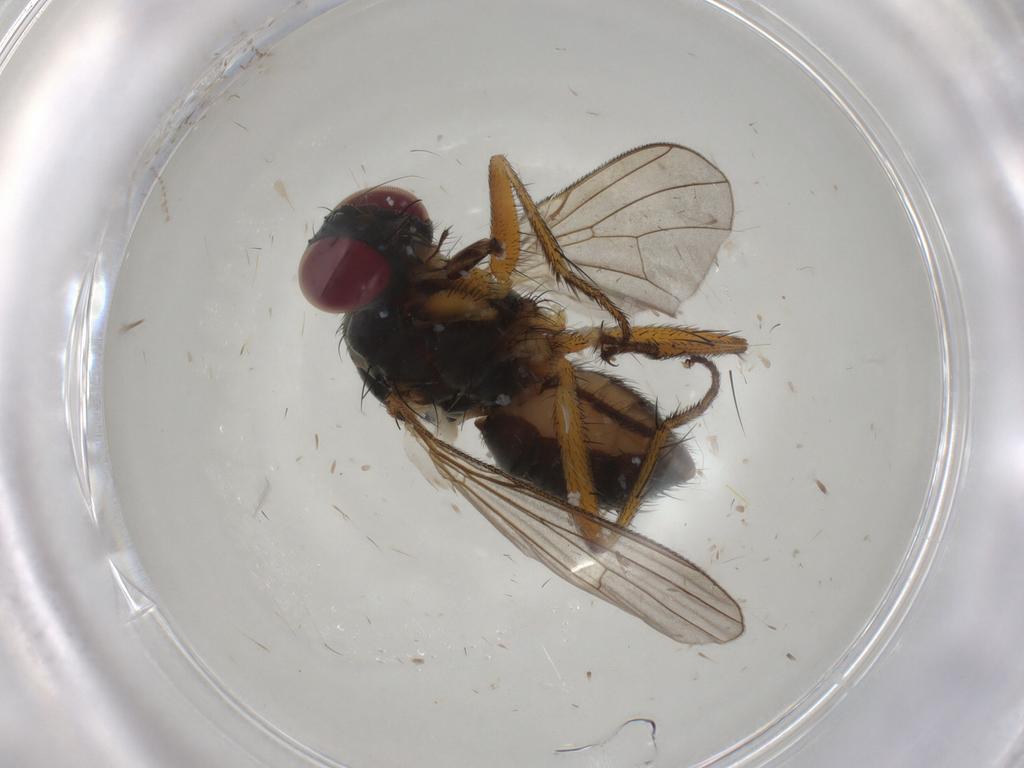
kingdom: Animalia
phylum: Arthropoda
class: Insecta
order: Diptera
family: Muscidae
